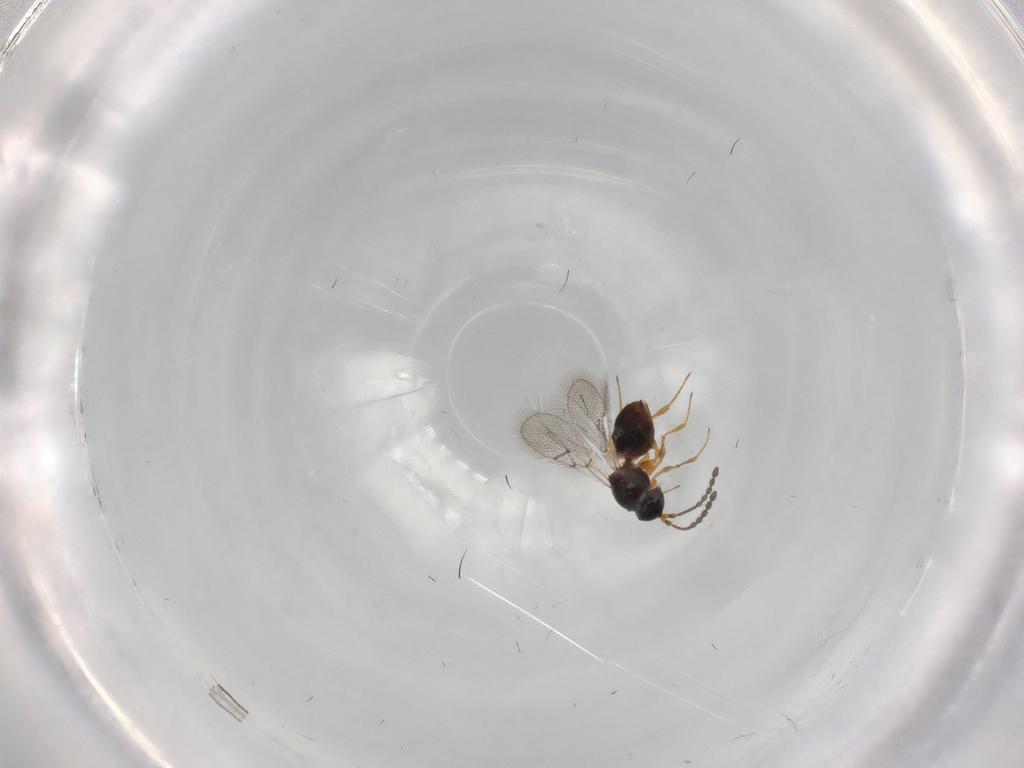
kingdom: Animalia
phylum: Arthropoda
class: Insecta
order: Hymenoptera
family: Figitidae
